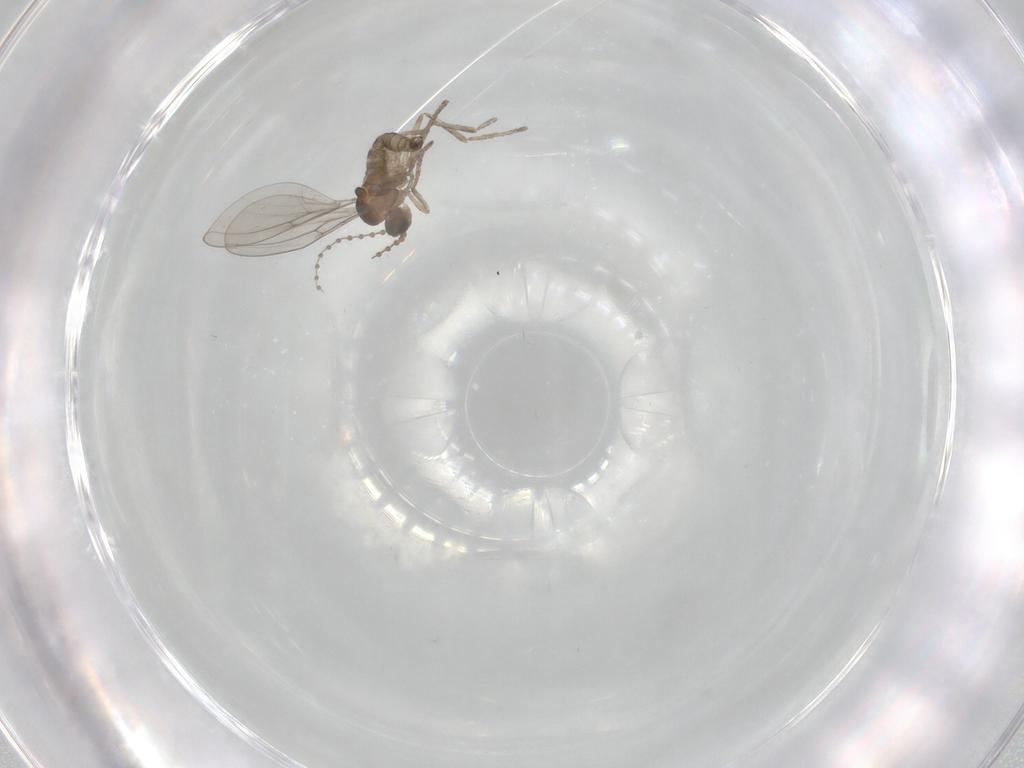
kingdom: Animalia
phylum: Arthropoda
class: Insecta
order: Diptera
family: Cecidomyiidae
